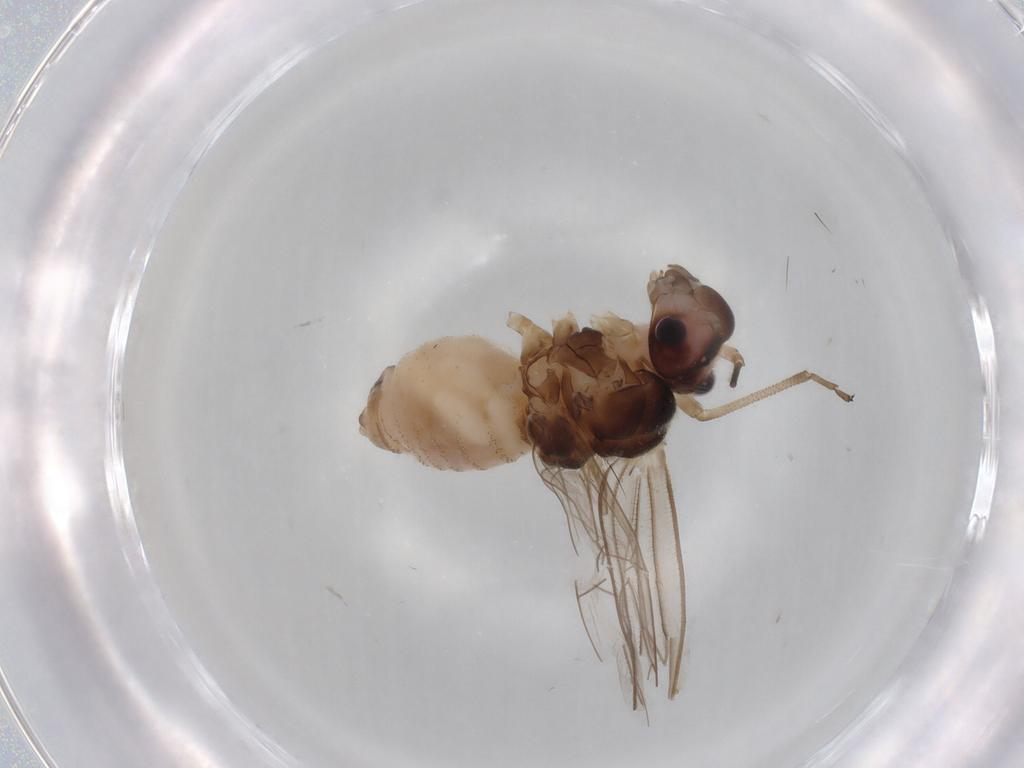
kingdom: Animalia
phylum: Arthropoda
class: Insecta
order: Psocodea
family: Stenopsocidae
